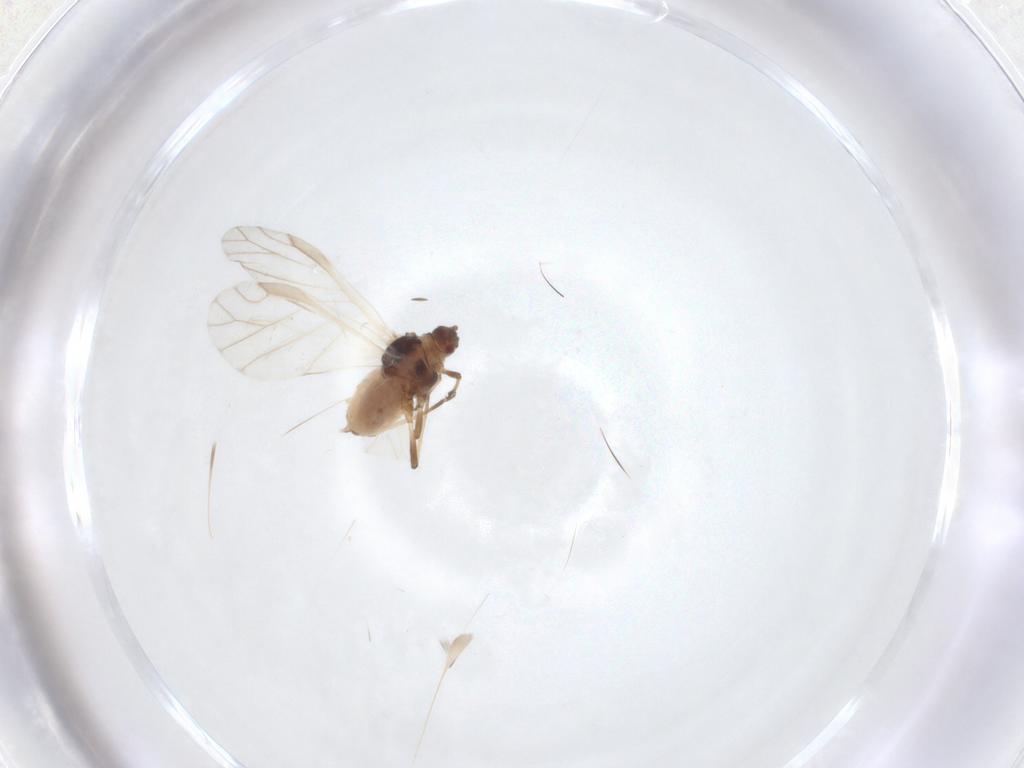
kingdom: Animalia
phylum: Arthropoda
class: Insecta
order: Hemiptera
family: Aphididae
